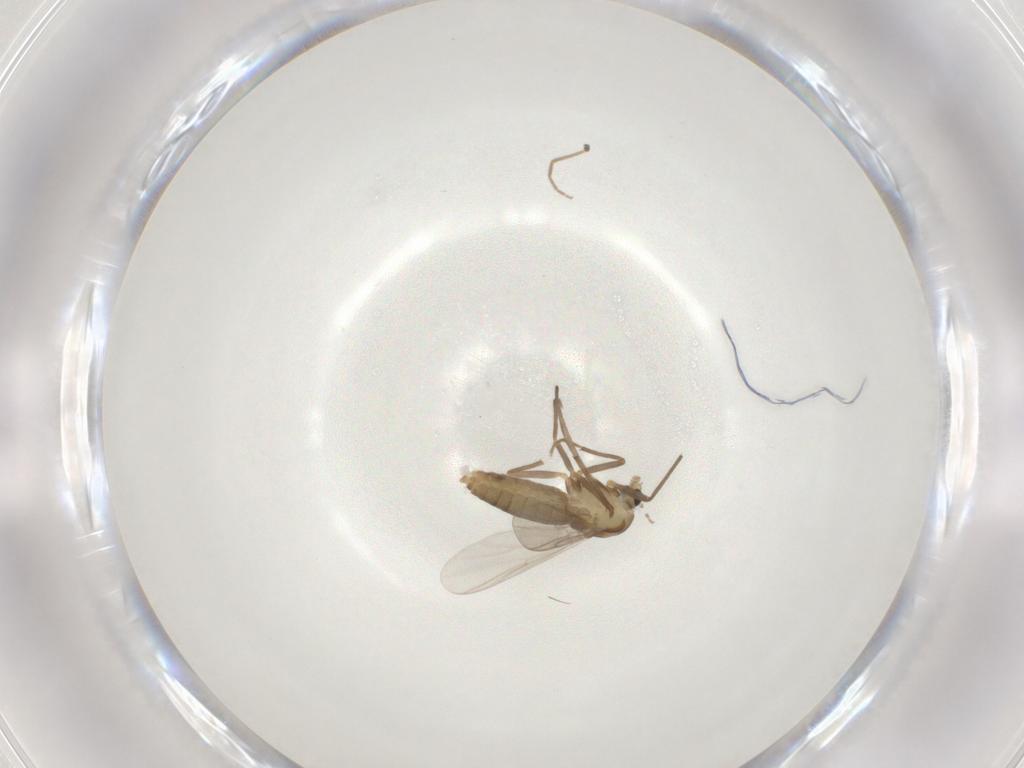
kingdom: Animalia
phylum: Arthropoda
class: Insecta
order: Diptera
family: Chironomidae
